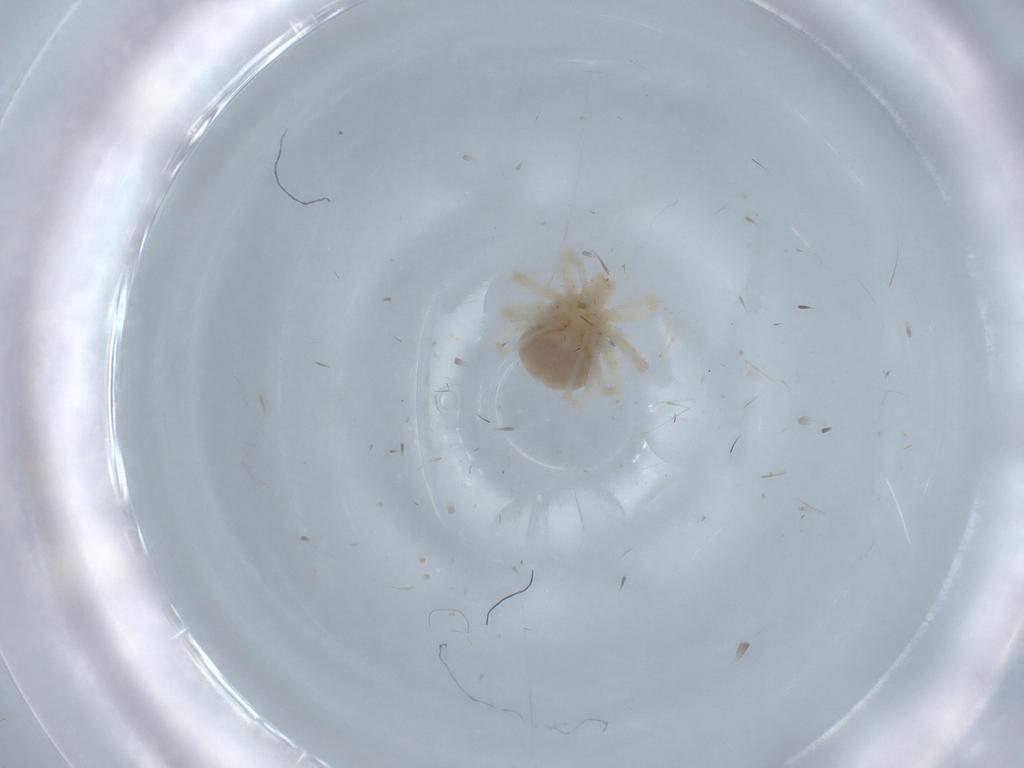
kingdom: Animalia
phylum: Arthropoda
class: Arachnida
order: Trombidiformes
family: Anystidae
